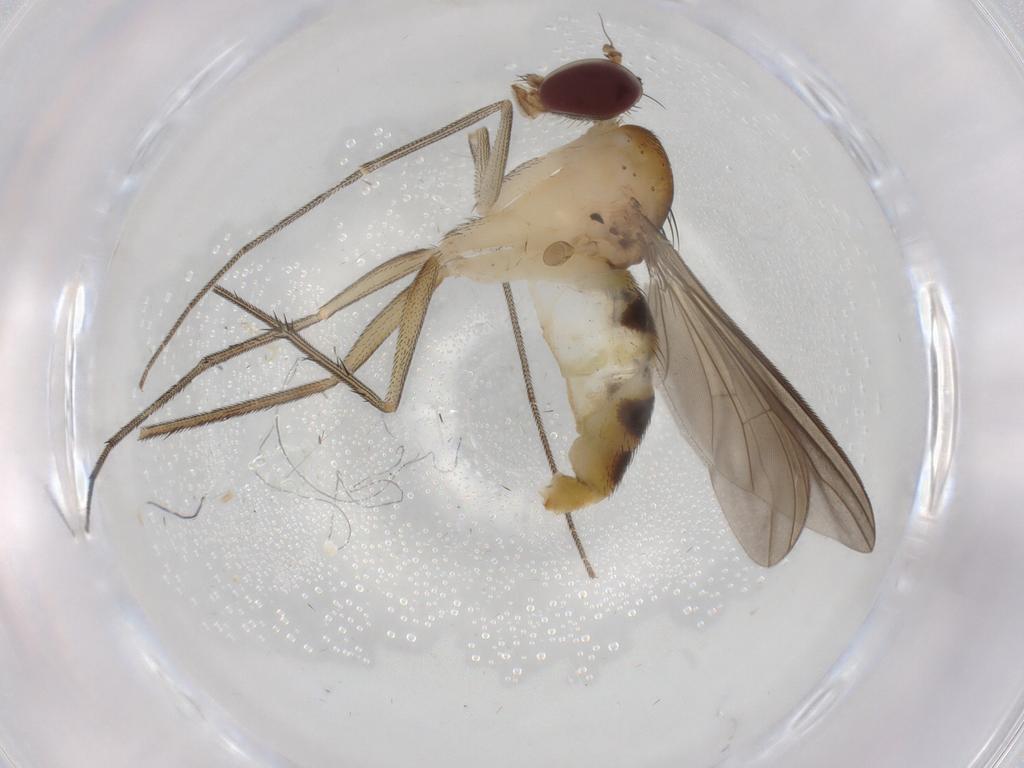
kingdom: Animalia
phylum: Arthropoda
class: Insecta
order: Diptera
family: Dolichopodidae
